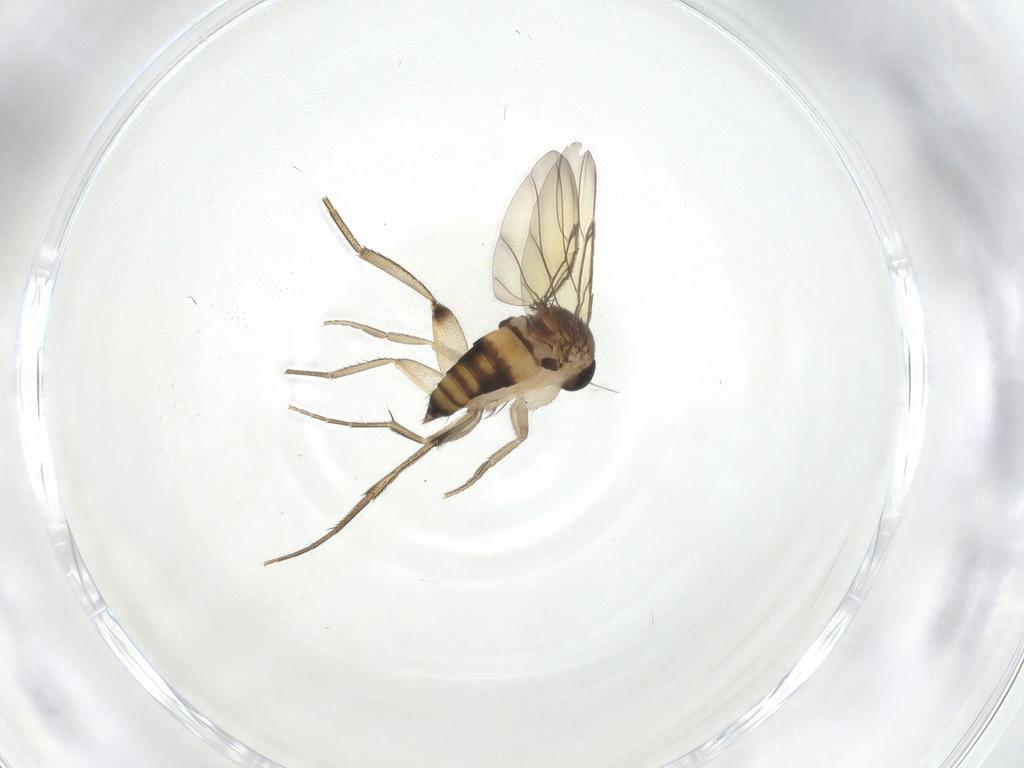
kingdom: Animalia
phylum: Arthropoda
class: Insecta
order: Diptera
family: Phoridae
